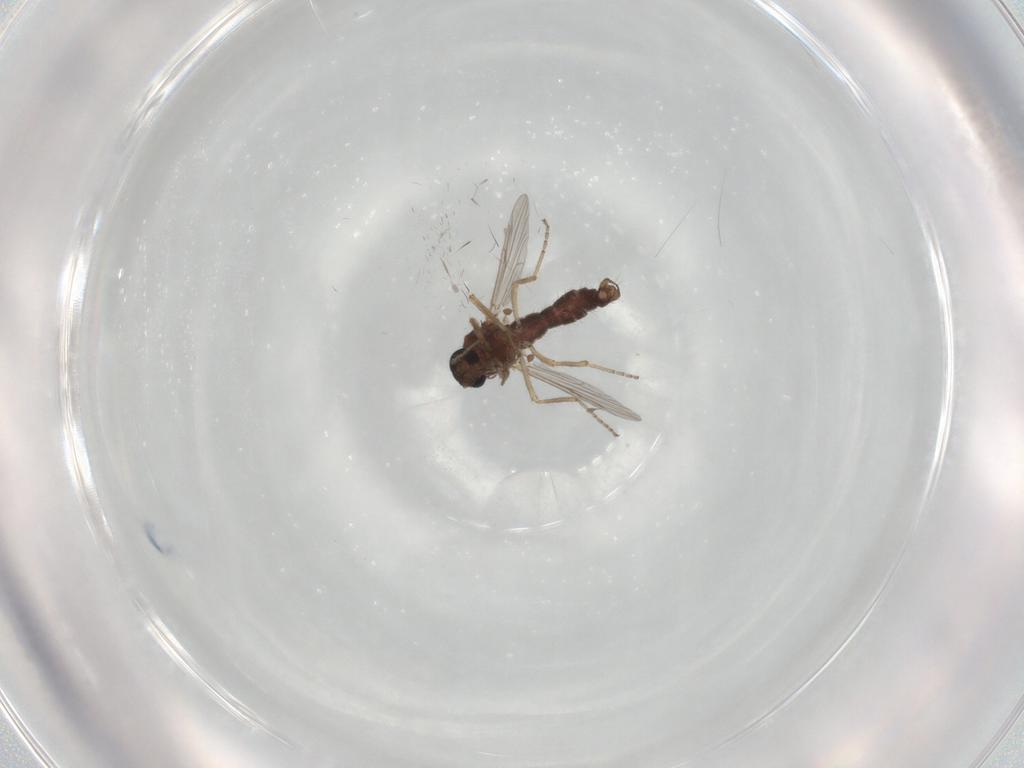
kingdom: Animalia
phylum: Arthropoda
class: Insecta
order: Diptera
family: Ceratopogonidae
